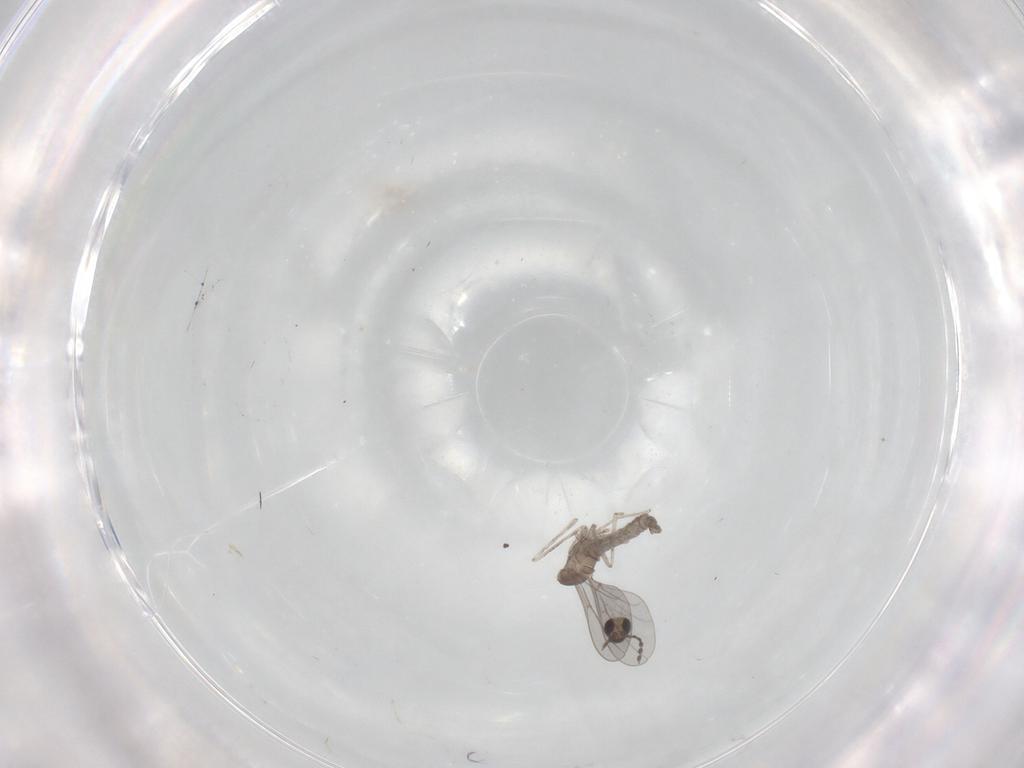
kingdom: Animalia
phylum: Arthropoda
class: Insecta
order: Diptera
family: Cecidomyiidae
